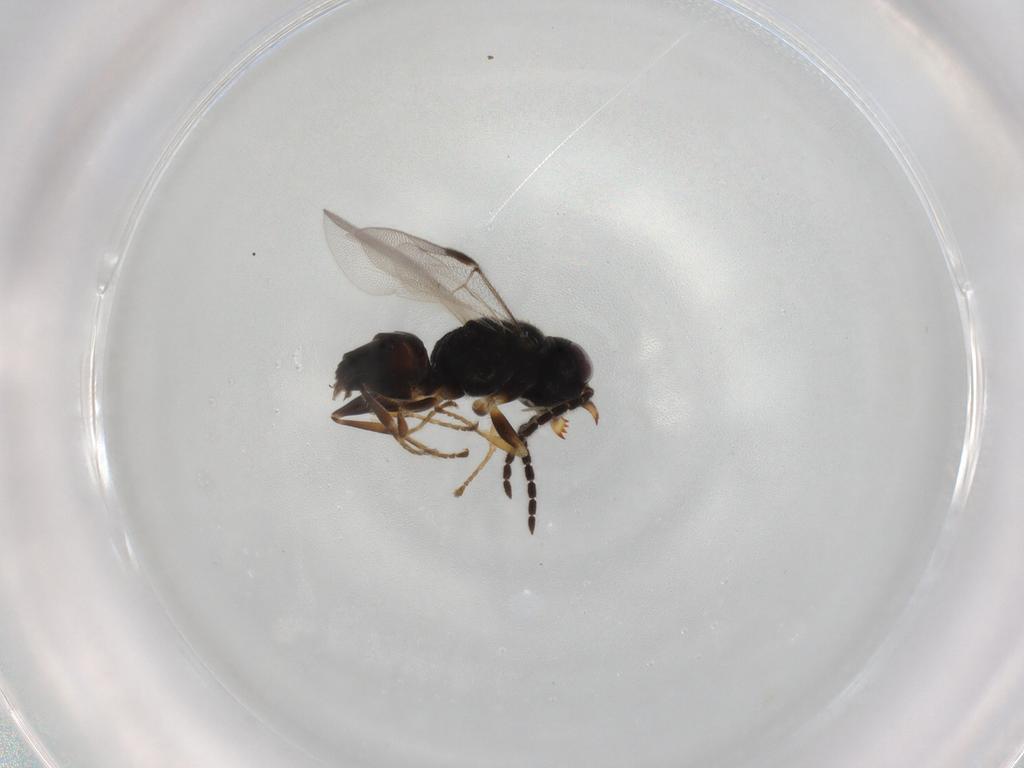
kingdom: Animalia
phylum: Arthropoda
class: Insecta
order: Hymenoptera
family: Dryinidae
